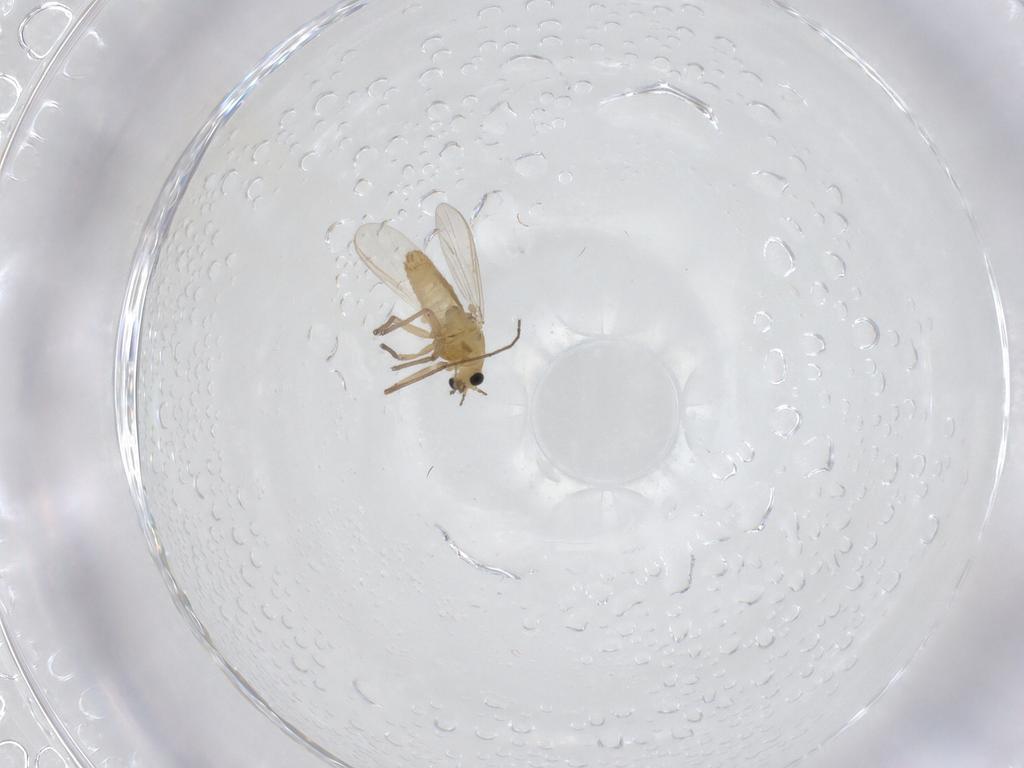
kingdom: Animalia
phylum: Arthropoda
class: Insecta
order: Diptera
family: Chironomidae
